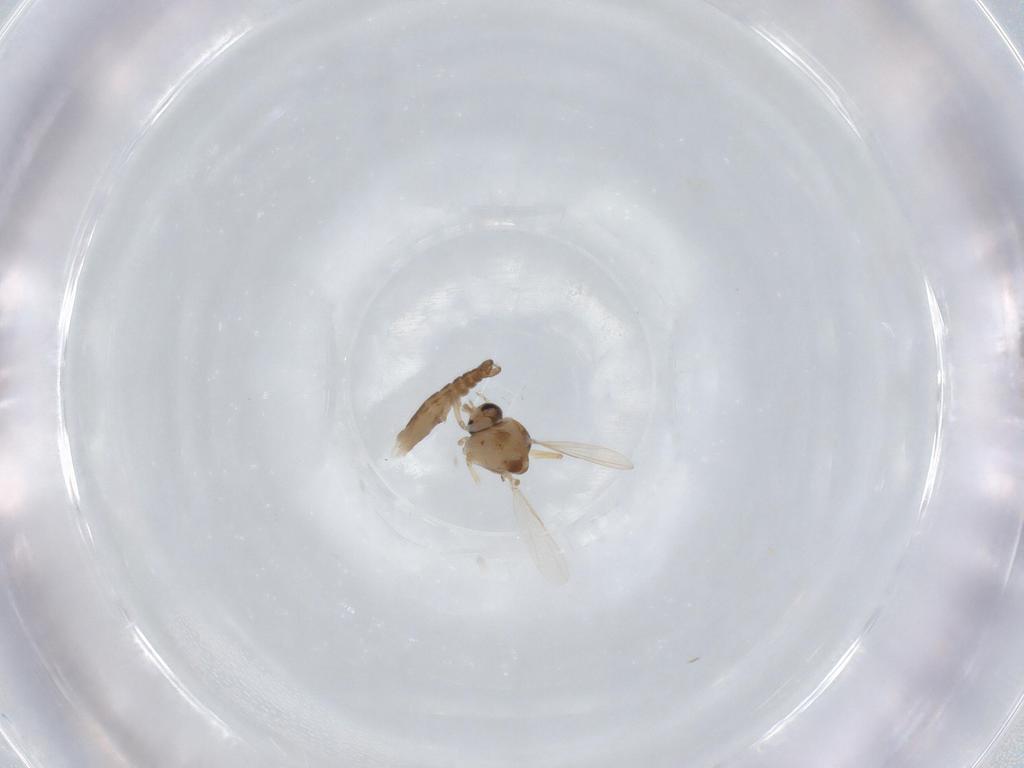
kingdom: Animalia
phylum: Arthropoda
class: Insecta
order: Diptera
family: Ceratopogonidae
